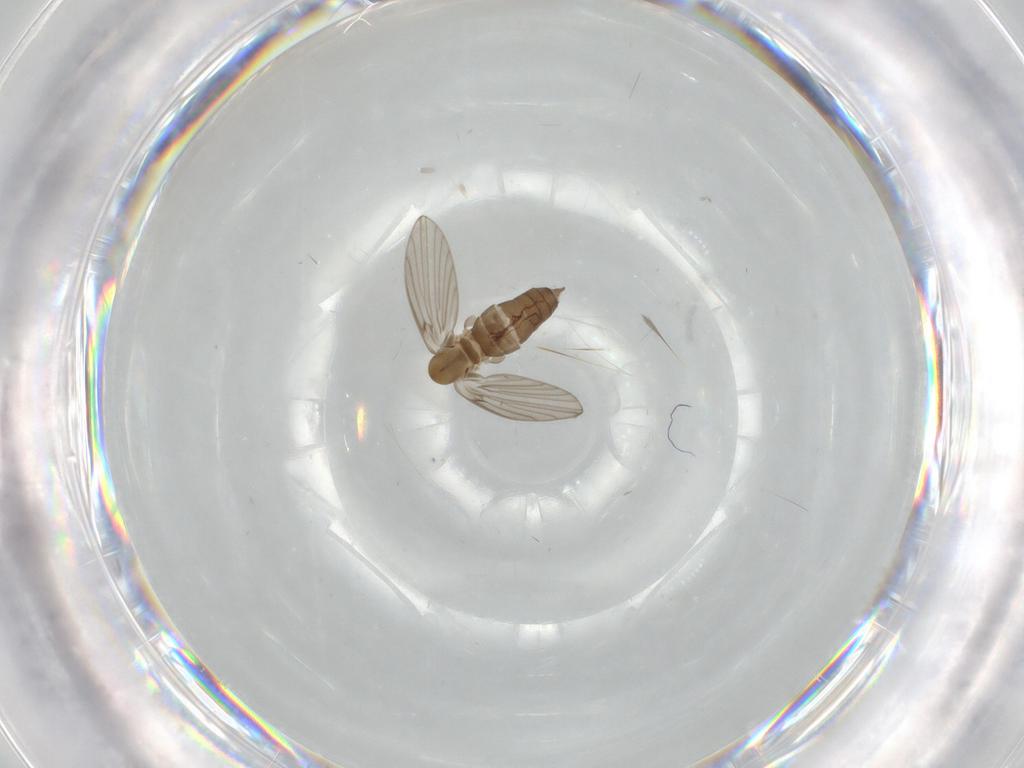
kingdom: Animalia
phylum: Arthropoda
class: Insecta
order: Diptera
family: Psychodidae
